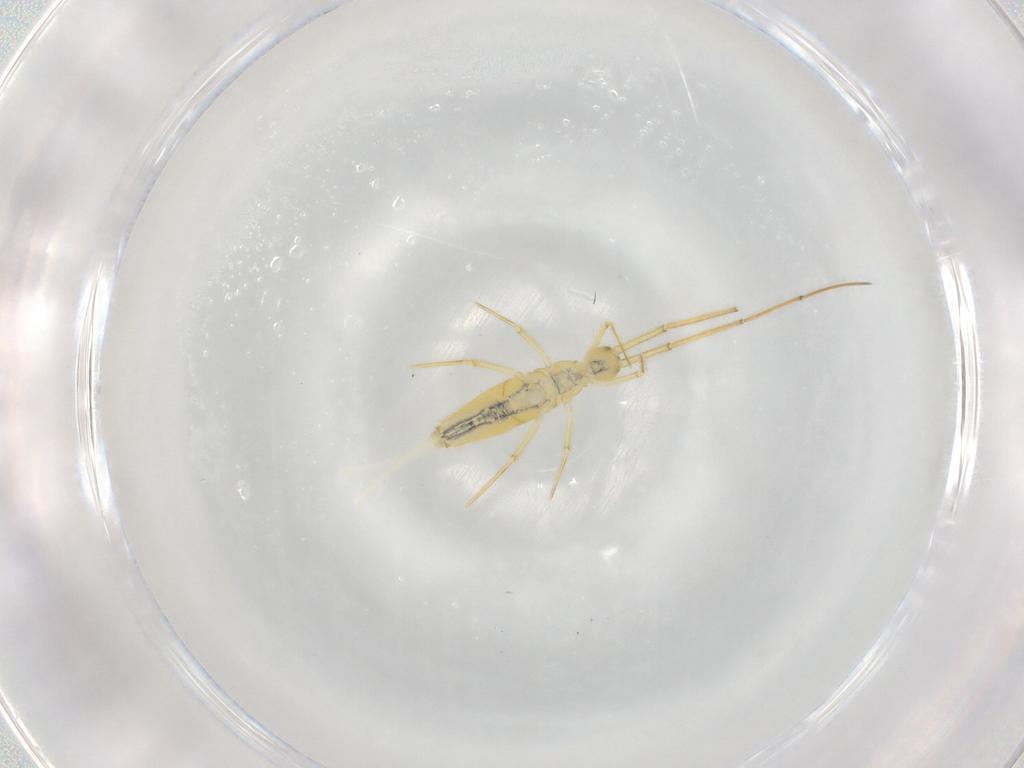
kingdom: Animalia
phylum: Arthropoda
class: Collembola
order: Entomobryomorpha
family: Paronellidae
